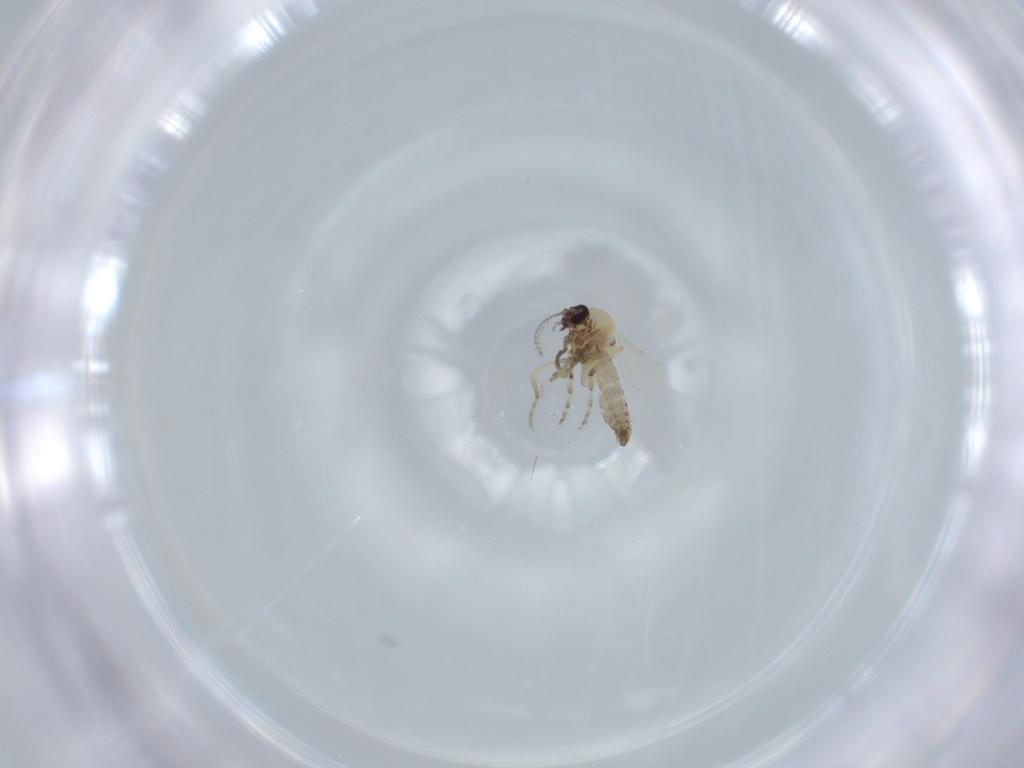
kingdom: Animalia
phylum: Arthropoda
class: Insecta
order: Diptera
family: Sciaridae
